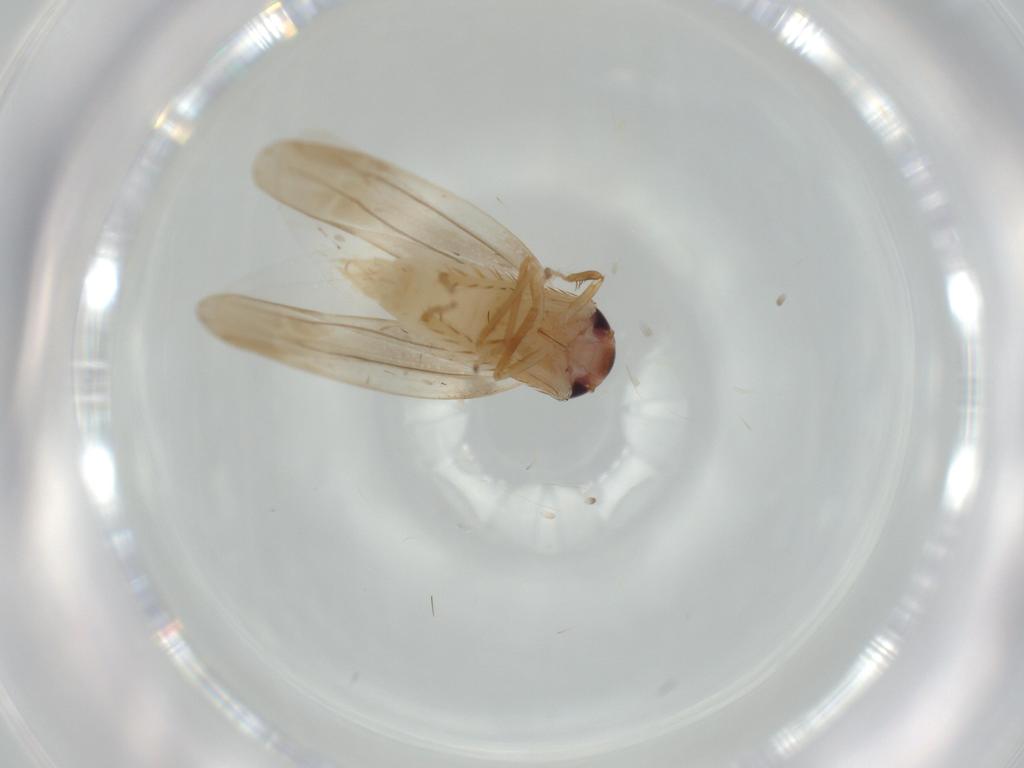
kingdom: Animalia
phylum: Arthropoda
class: Insecta
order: Hemiptera
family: Cicadellidae
